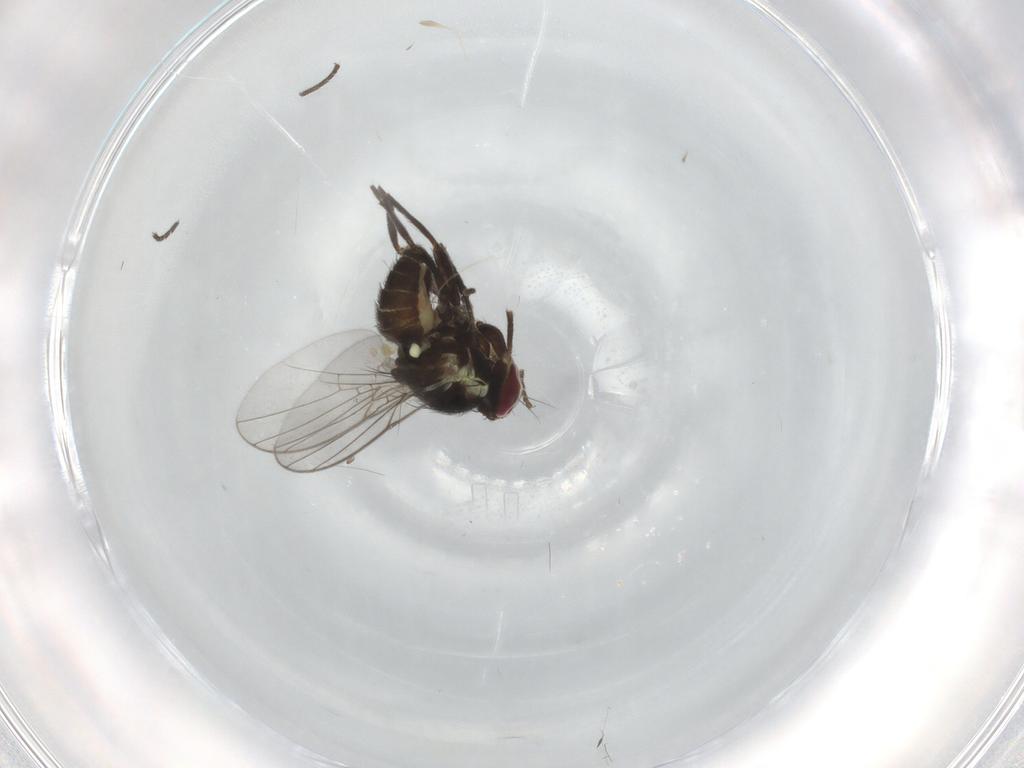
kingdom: Animalia
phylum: Arthropoda
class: Insecta
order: Diptera
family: Agromyzidae
